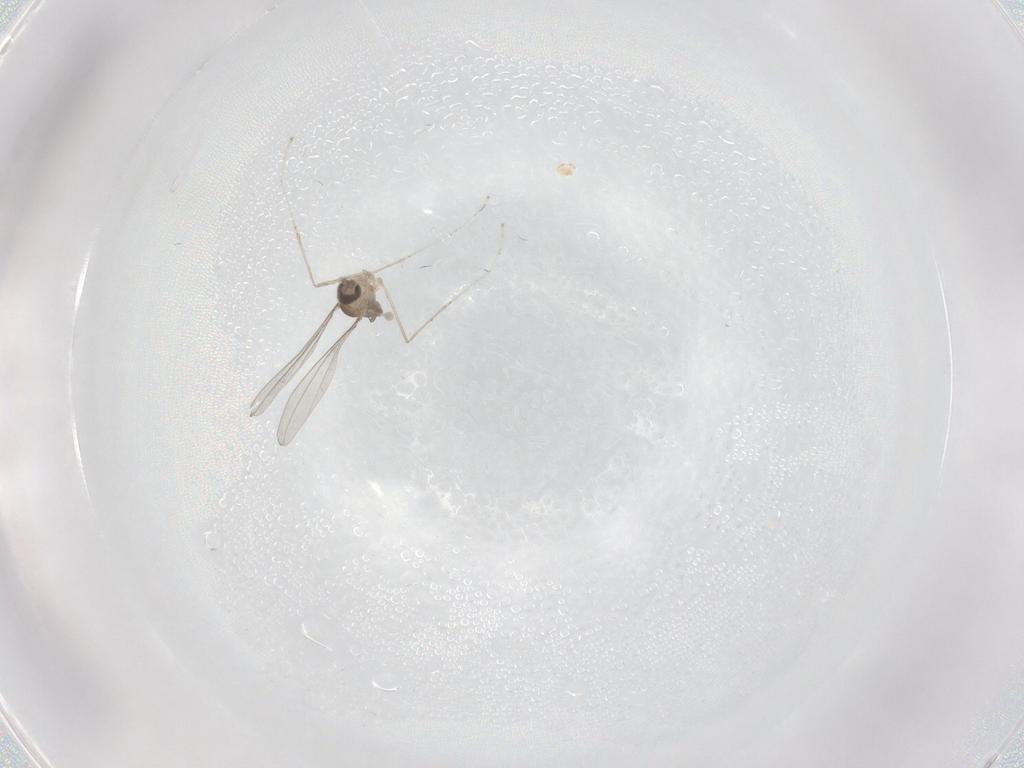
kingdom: Animalia
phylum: Arthropoda
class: Insecta
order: Diptera
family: Cecidomyiidae
